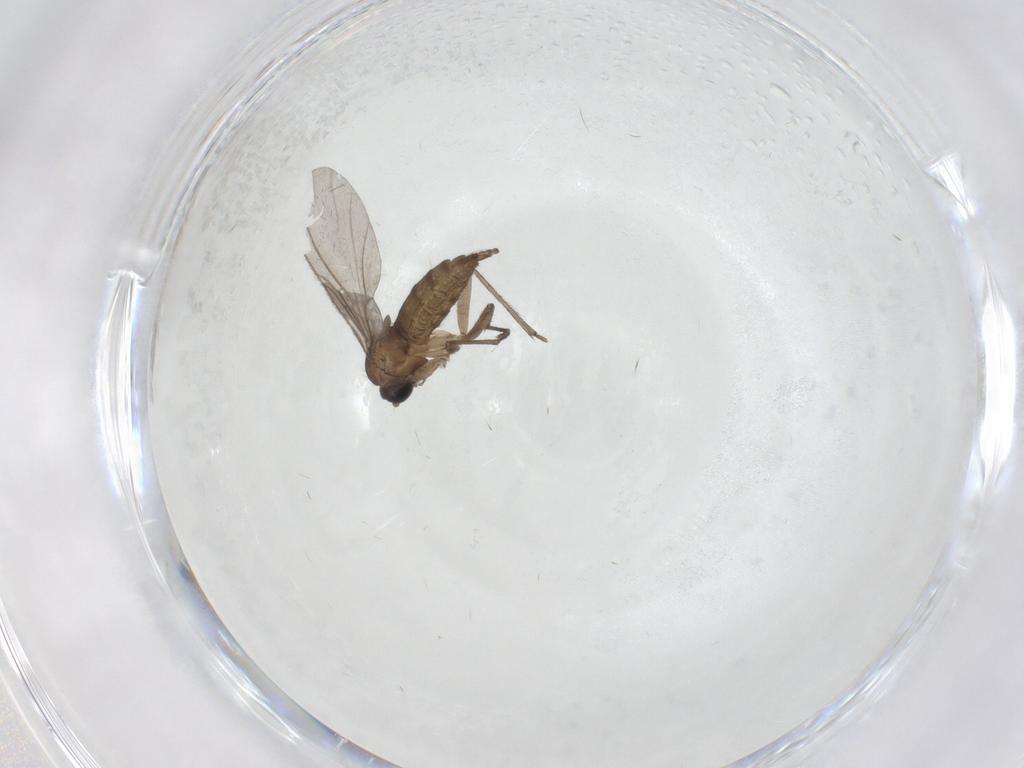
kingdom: Animalia
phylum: Arthropoda
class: Insecta
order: Diptera
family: Sciaridae
